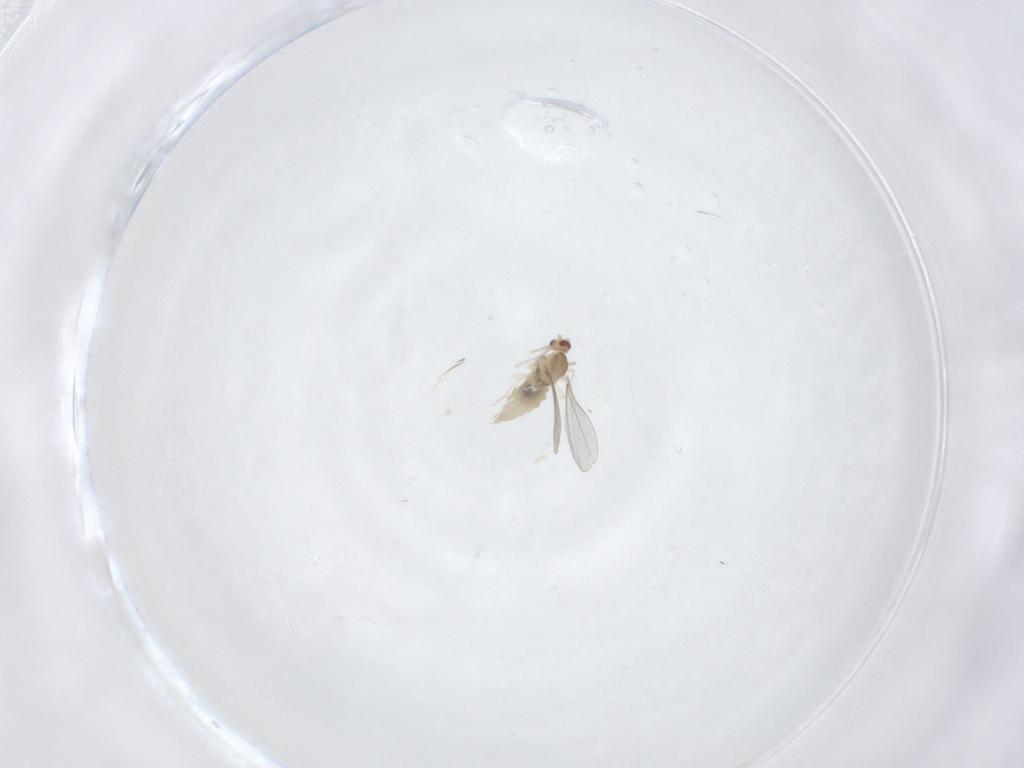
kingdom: Animalia
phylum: Arthropoda
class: Insecta
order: Diptera
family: Cecidomyiidae
